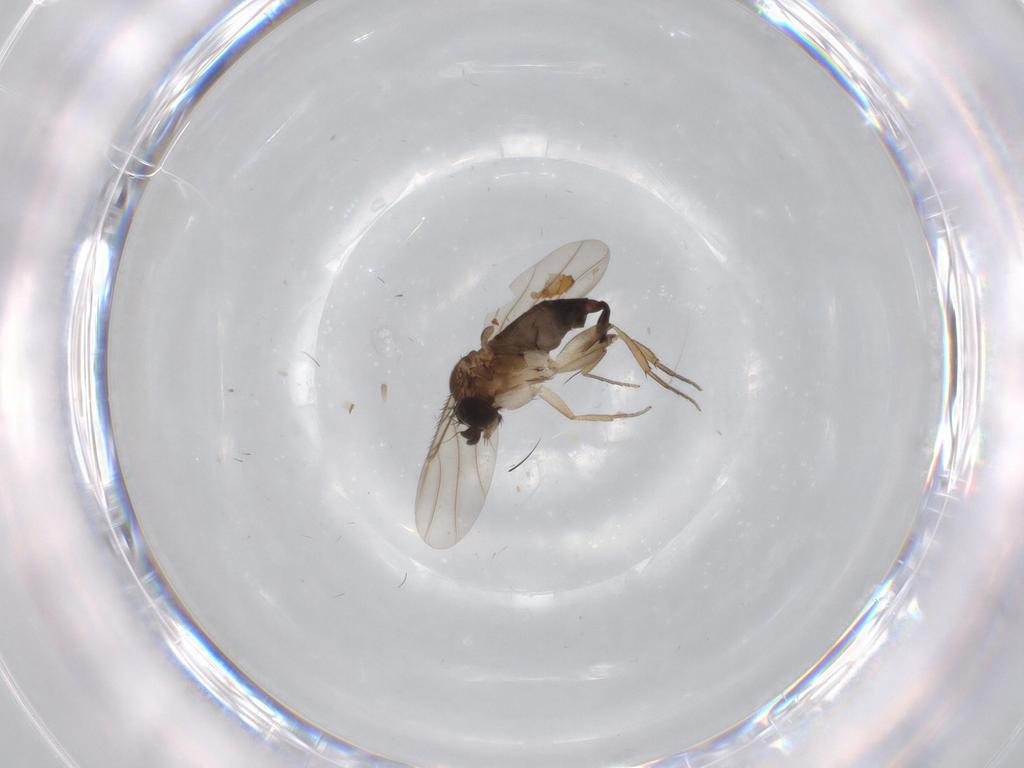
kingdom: Animalia
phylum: Arthropoda
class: Insecta
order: Diptera
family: Phoridae
